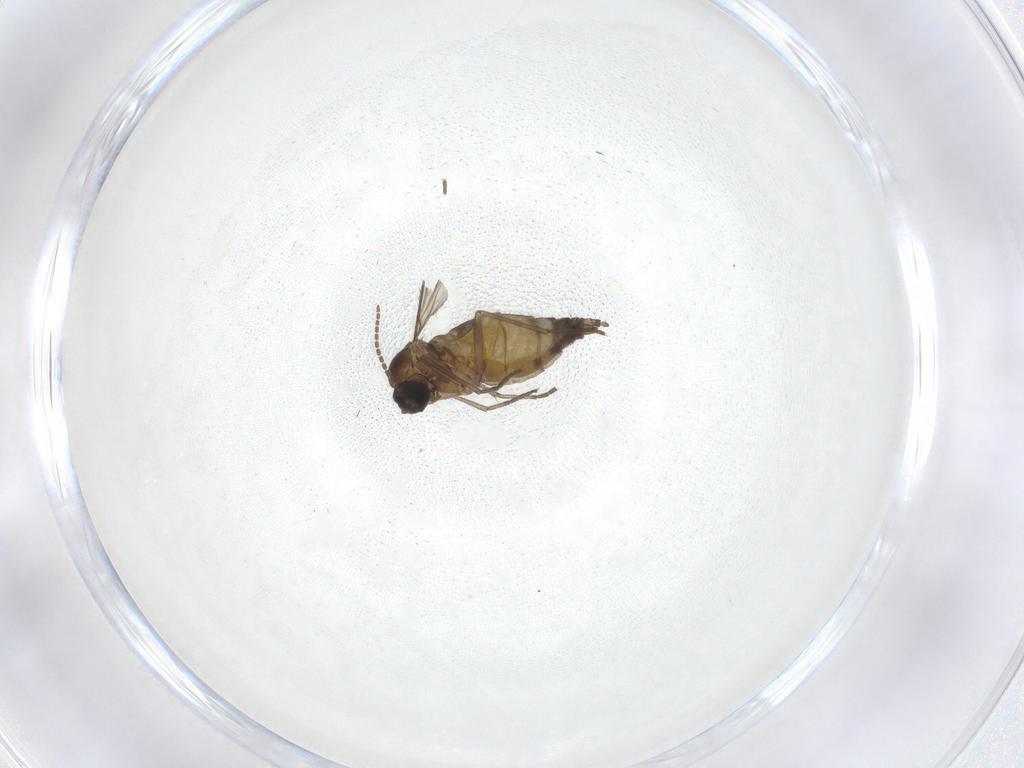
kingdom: Animalia
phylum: Arthropoda
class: Insecta
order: Diptera
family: Sciaridae
